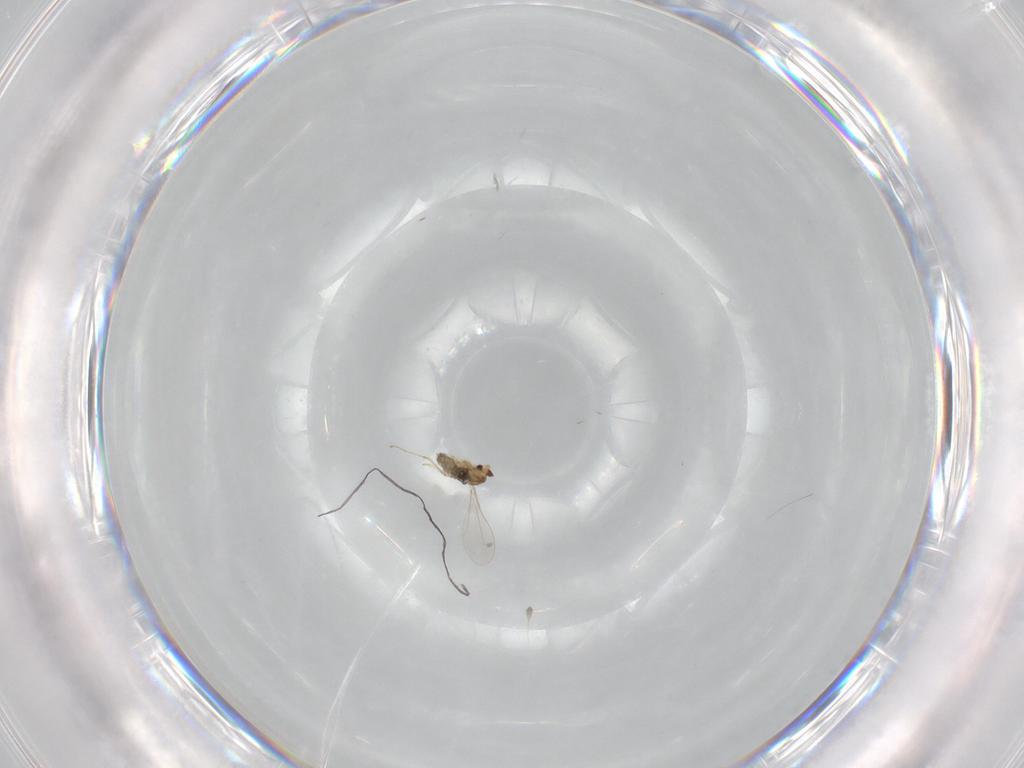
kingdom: Animalia
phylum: Arthropoda
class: Insecta
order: Diptera
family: Cecidomyiidae
